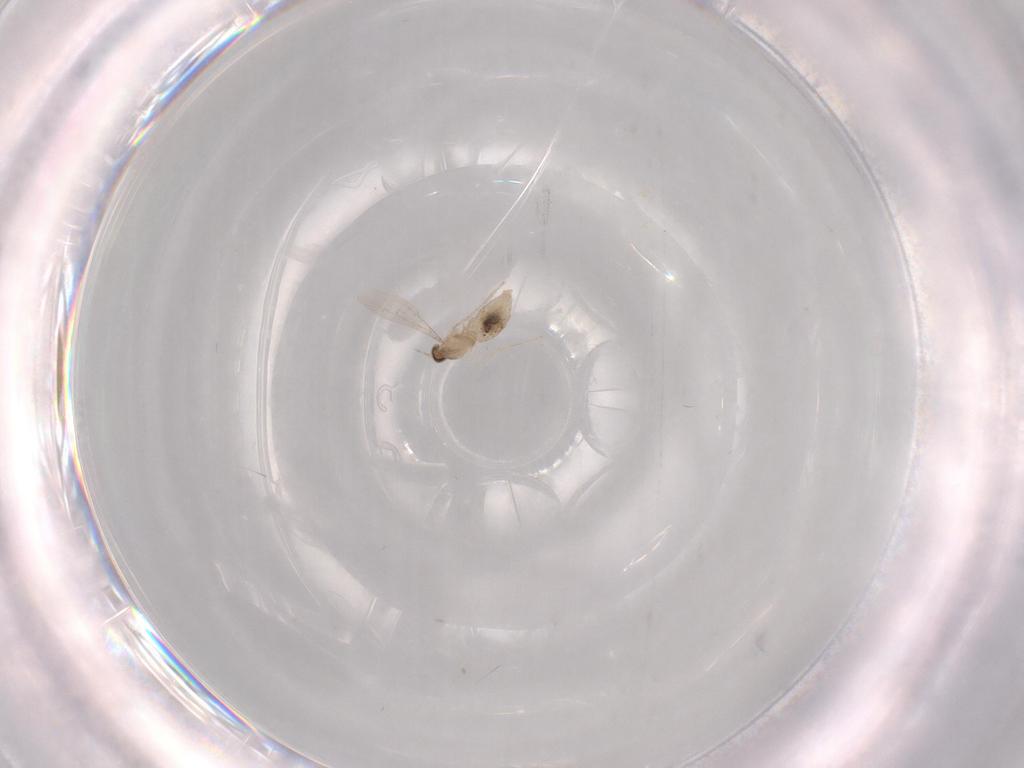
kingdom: Animalia
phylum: Arthropoda
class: Insecta
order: Diptera
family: Cecidomyiidae
